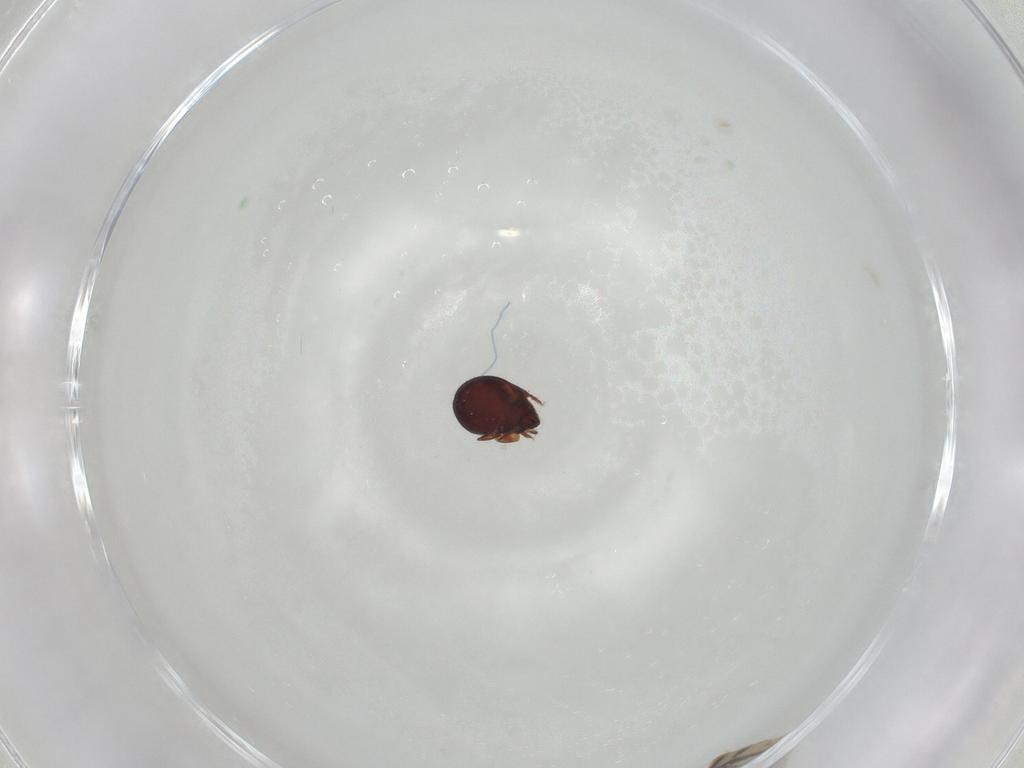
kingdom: Animalia
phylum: Arthropoda
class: Arachnida
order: Sarcoptiformes
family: Humerobatidae
